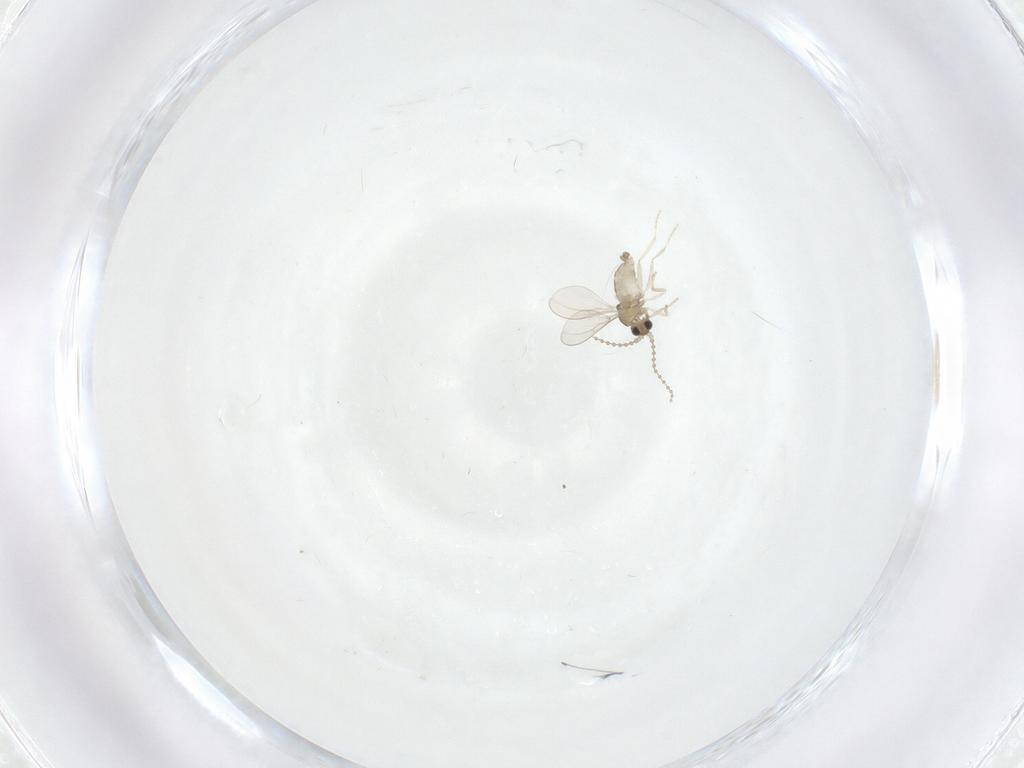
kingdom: Animalia
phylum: Arthropoda
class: Insecta
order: Diptera
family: Cecidomyiidae
